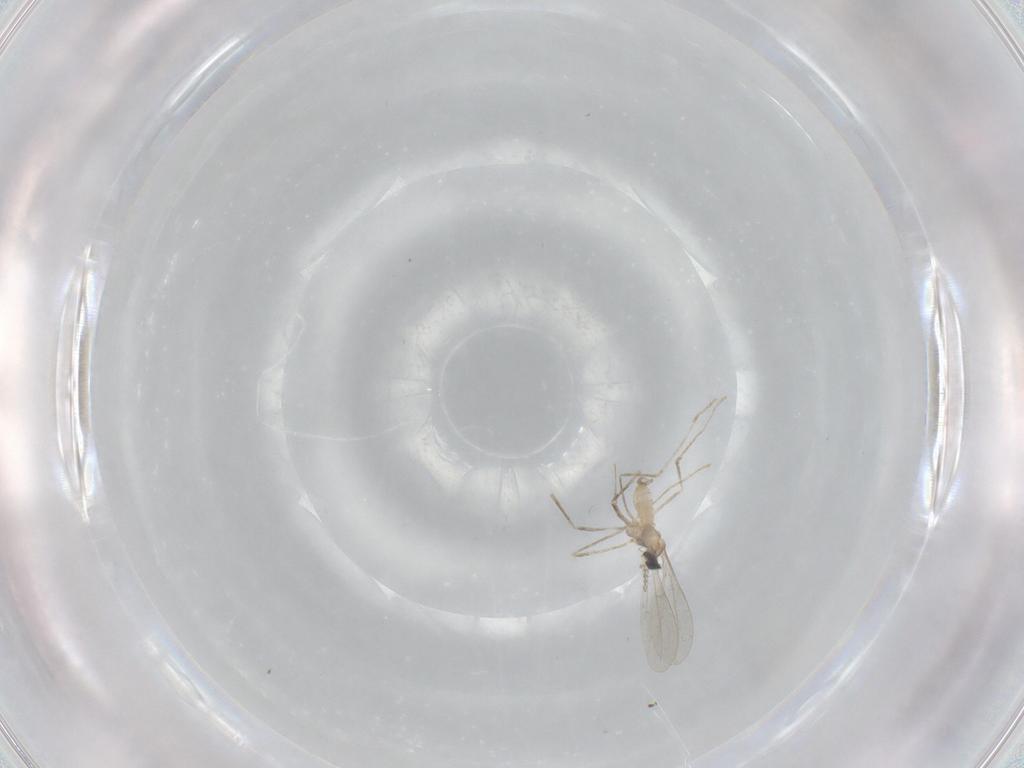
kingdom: Animalia
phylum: Arthropoda
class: Insecta
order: Diptera
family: Cecidomyiidae
